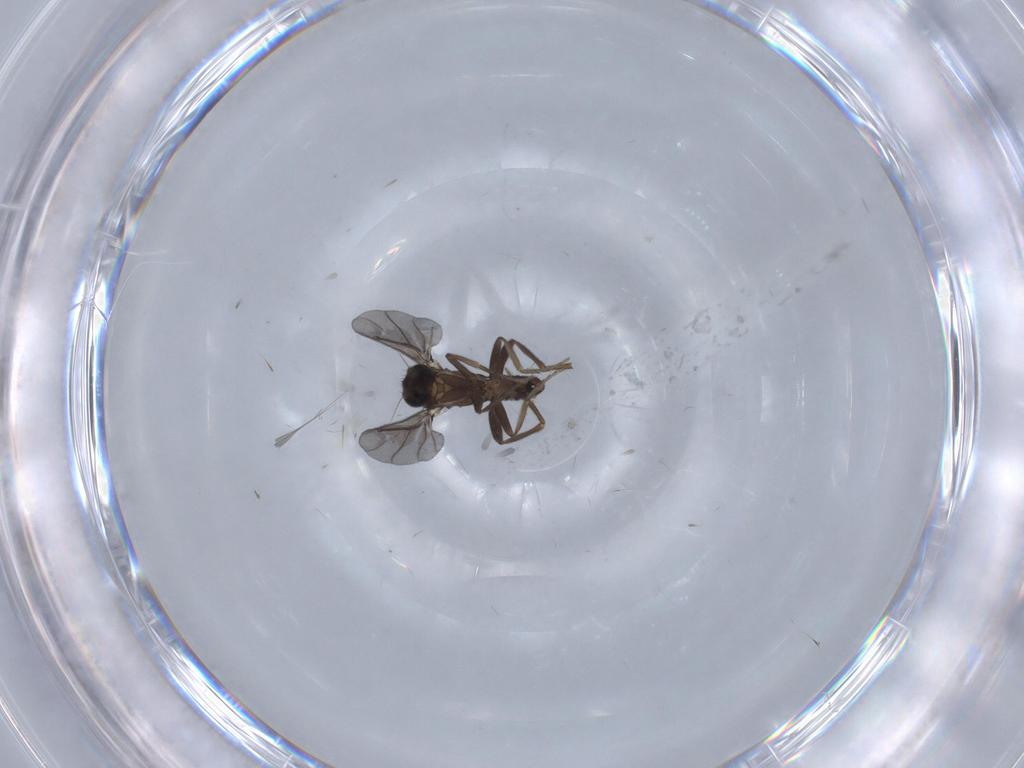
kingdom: Animalia
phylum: Arthropoda
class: Insecta
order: Diptera
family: Phoridae
